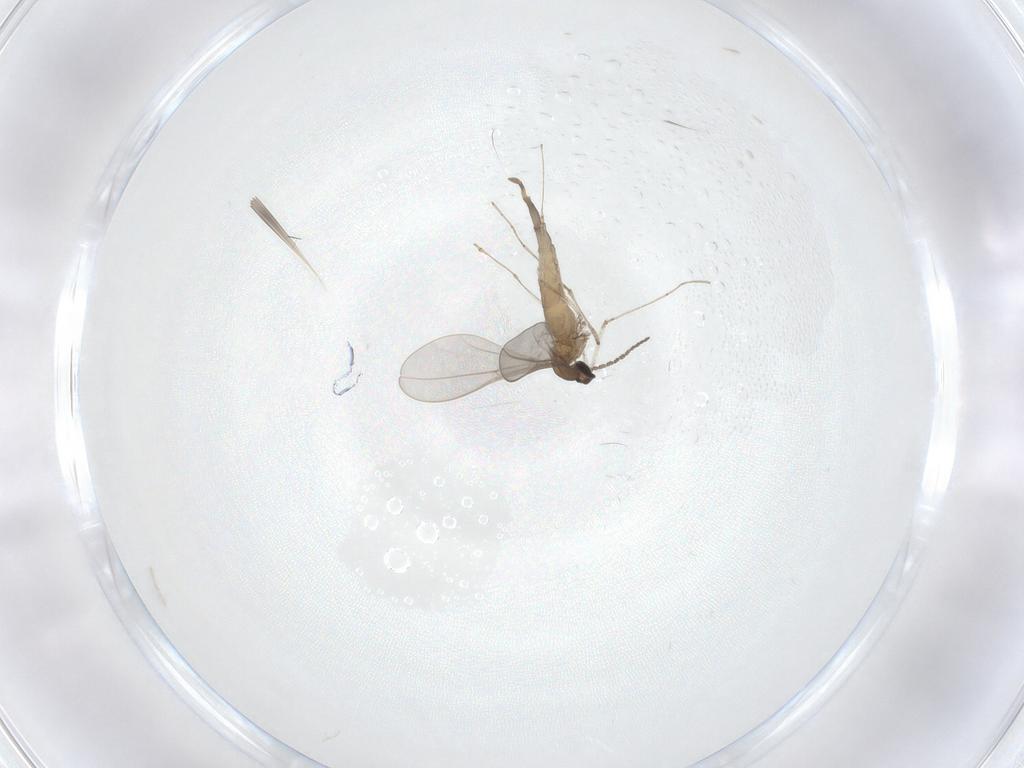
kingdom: Animalia
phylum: Arthropoda
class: Insecta
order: Diptera
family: Cecidomyiidae
